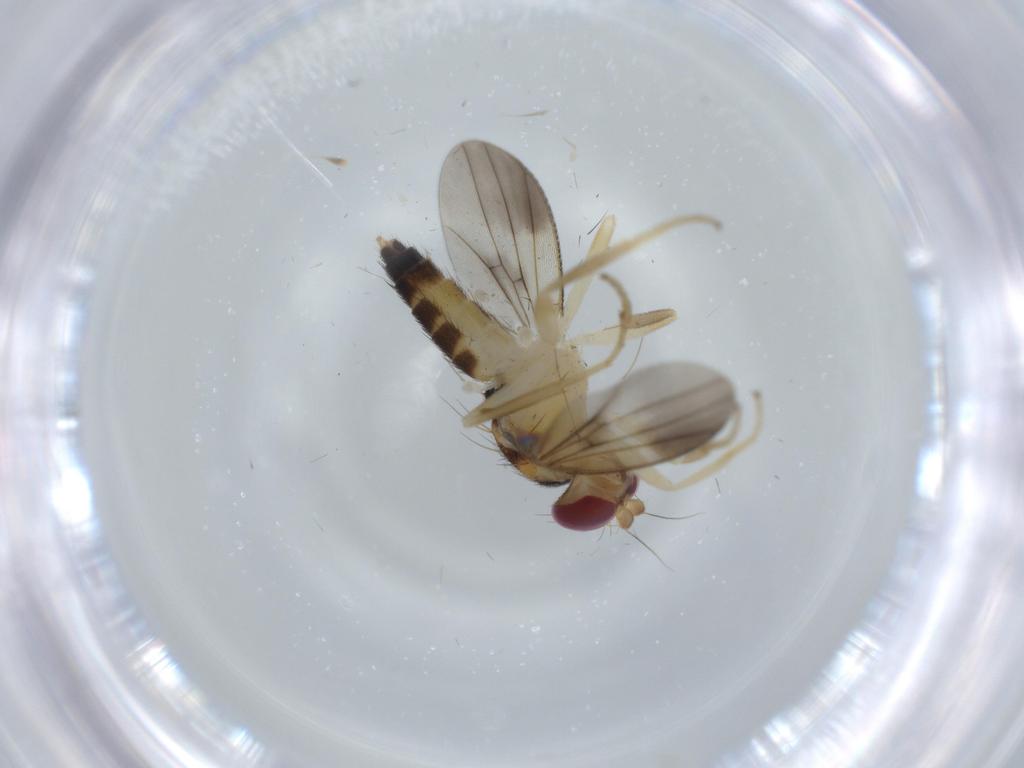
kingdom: Animalia
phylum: Arthropoda
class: Insecta
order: Diptera
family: Clusiidae
